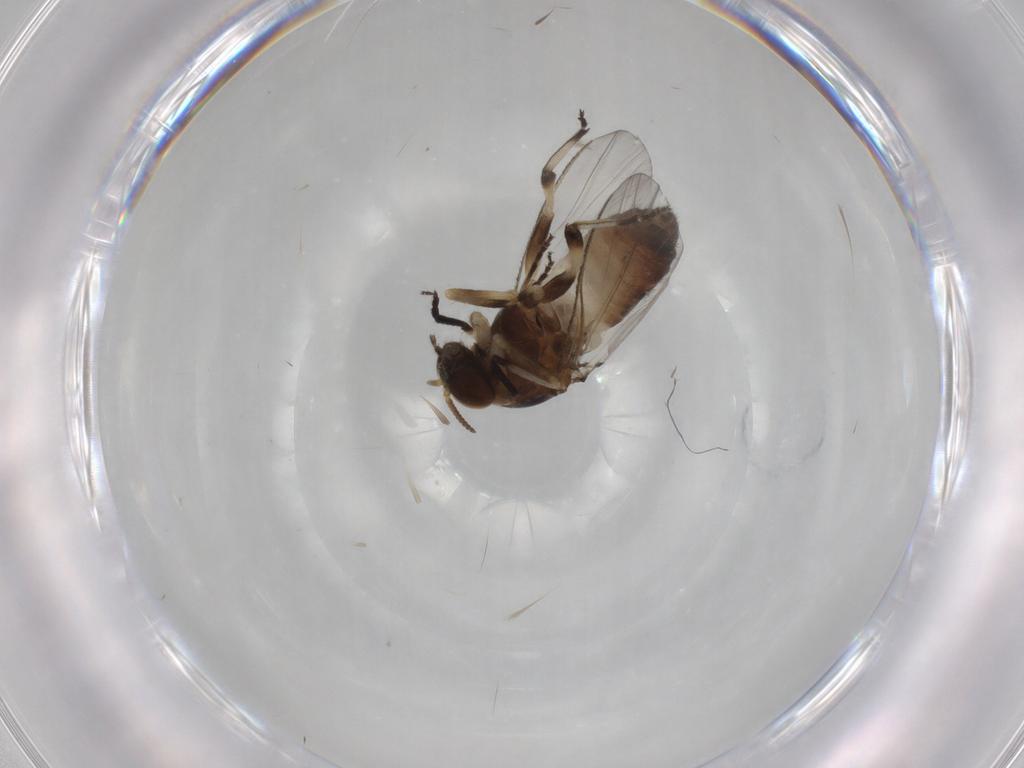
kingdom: Animalia
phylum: Arthropoda
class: Insecta
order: Diptera
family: Simuliidae
